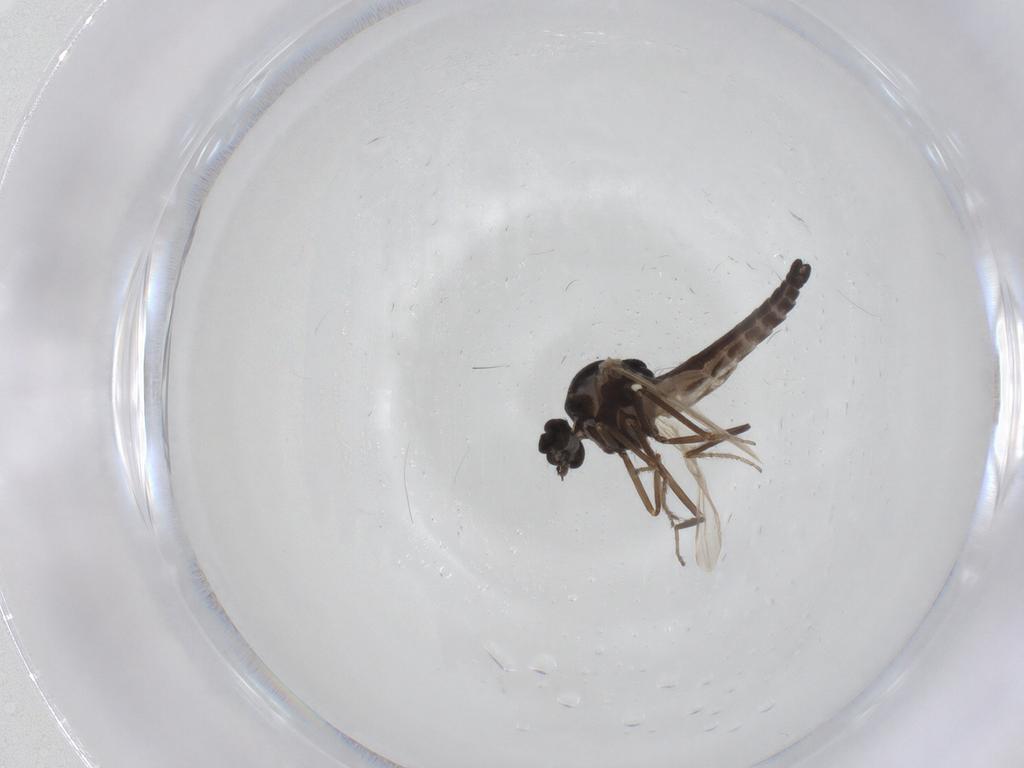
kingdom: Animalia
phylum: Arthropoda
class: Insecta
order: Diptera
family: Ceratopogonidae
